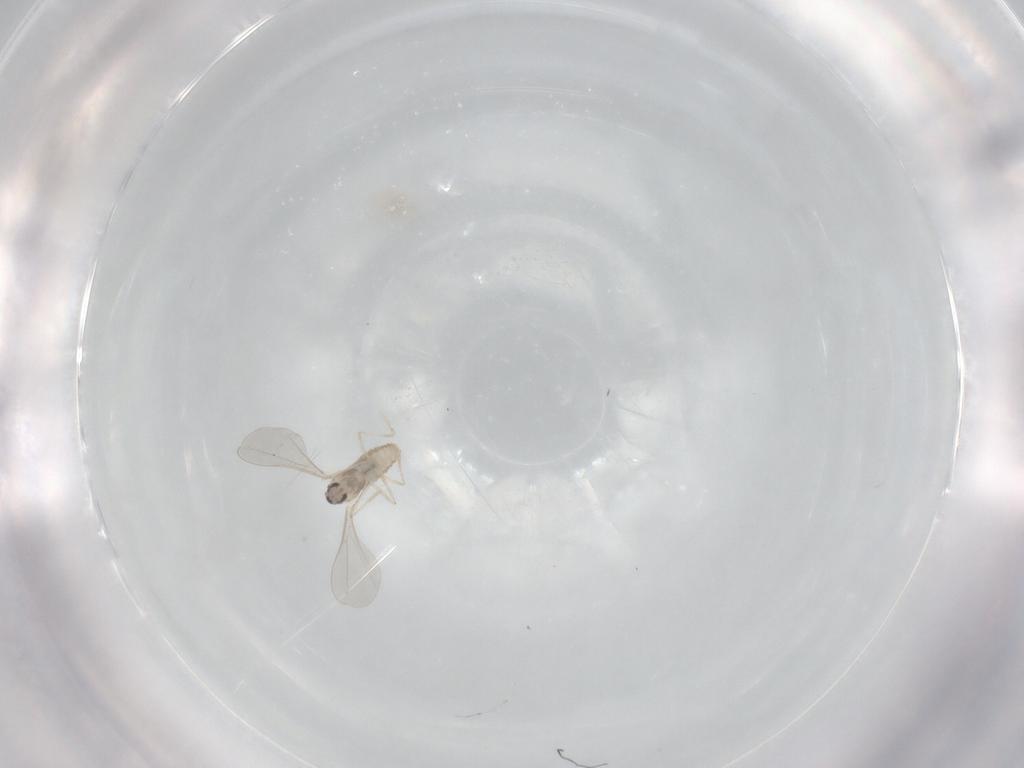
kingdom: Animalia
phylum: Arthropoda
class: Insecta
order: Diptera
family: Cecidomyiidae
